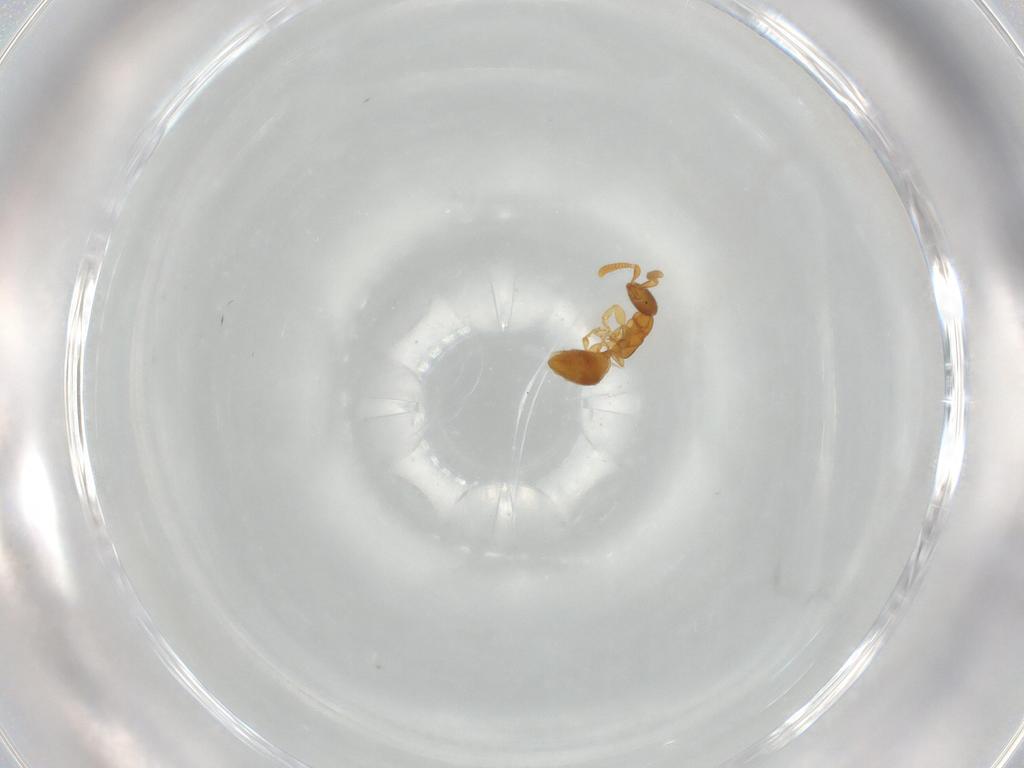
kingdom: Animalia
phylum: Arthropoda
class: Insecta
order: Hymenoptera
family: Bethylidae
